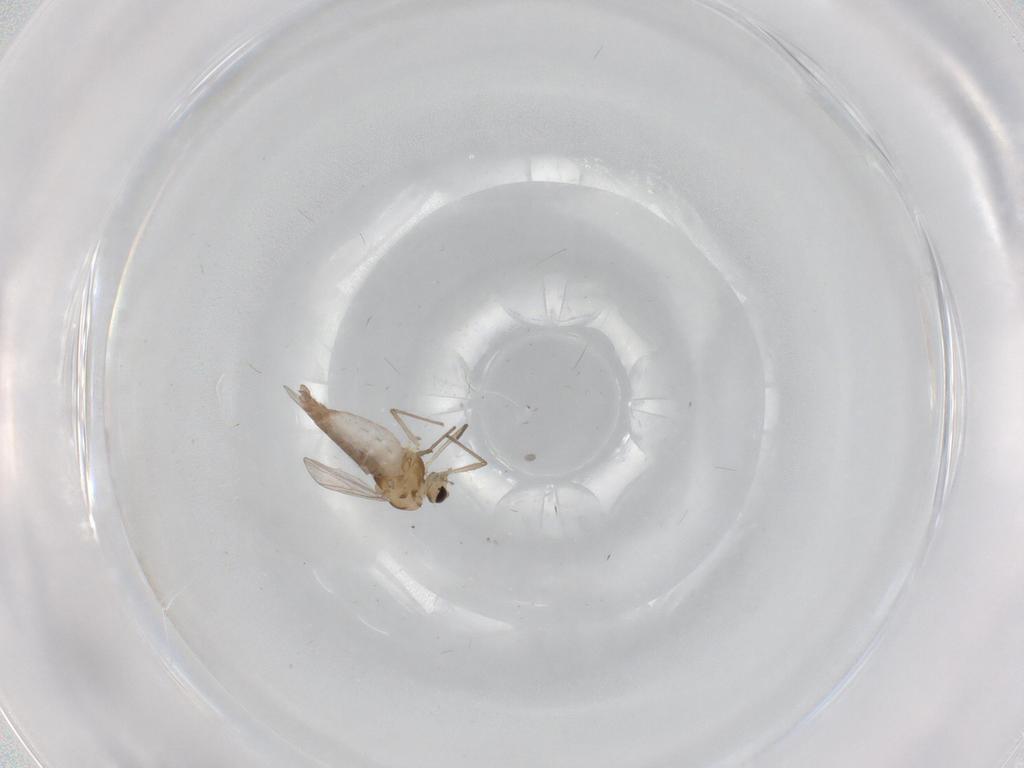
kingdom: Animalia
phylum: Arthropoda
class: Insecta
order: Diptera
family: Chironomidae
